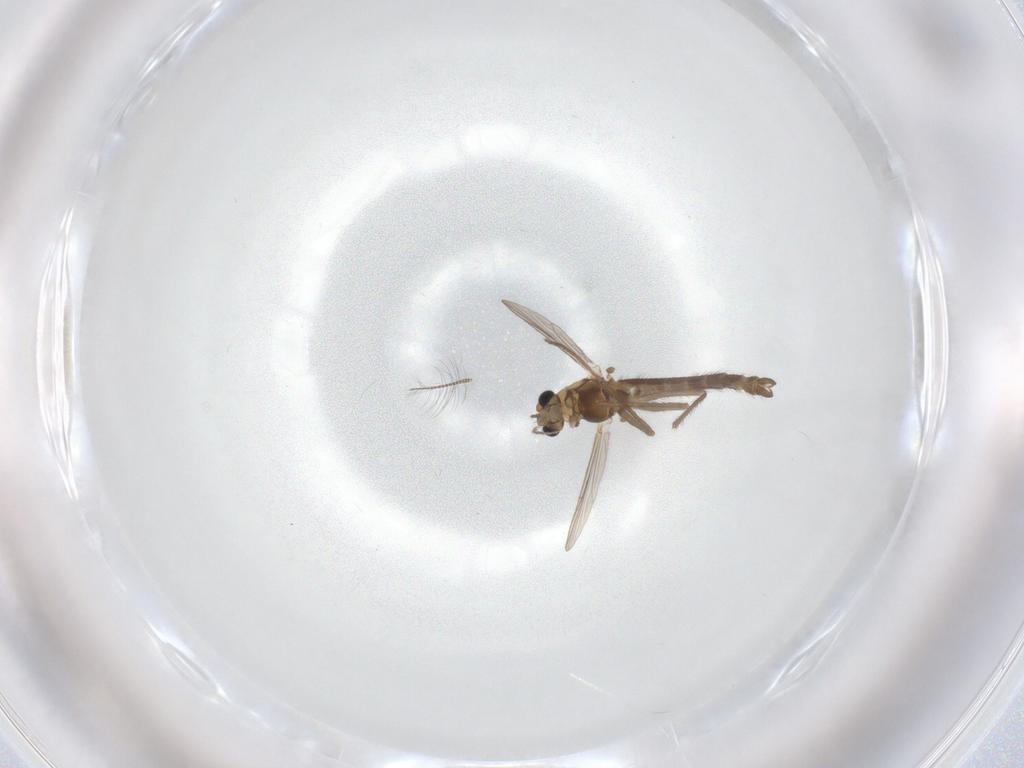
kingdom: Animalia
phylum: Arthropoda
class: Insecta
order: Diptera
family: Chironomidae
